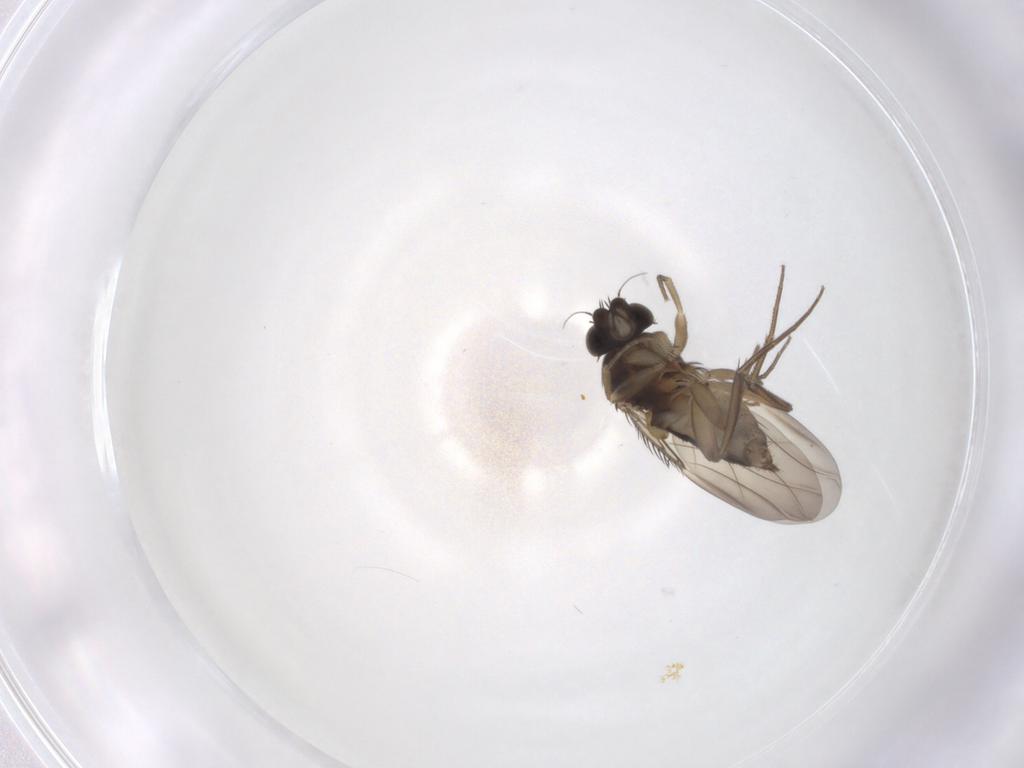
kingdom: Animalia
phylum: Arthropoda
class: Insecta
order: Diptera
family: Phoridae
